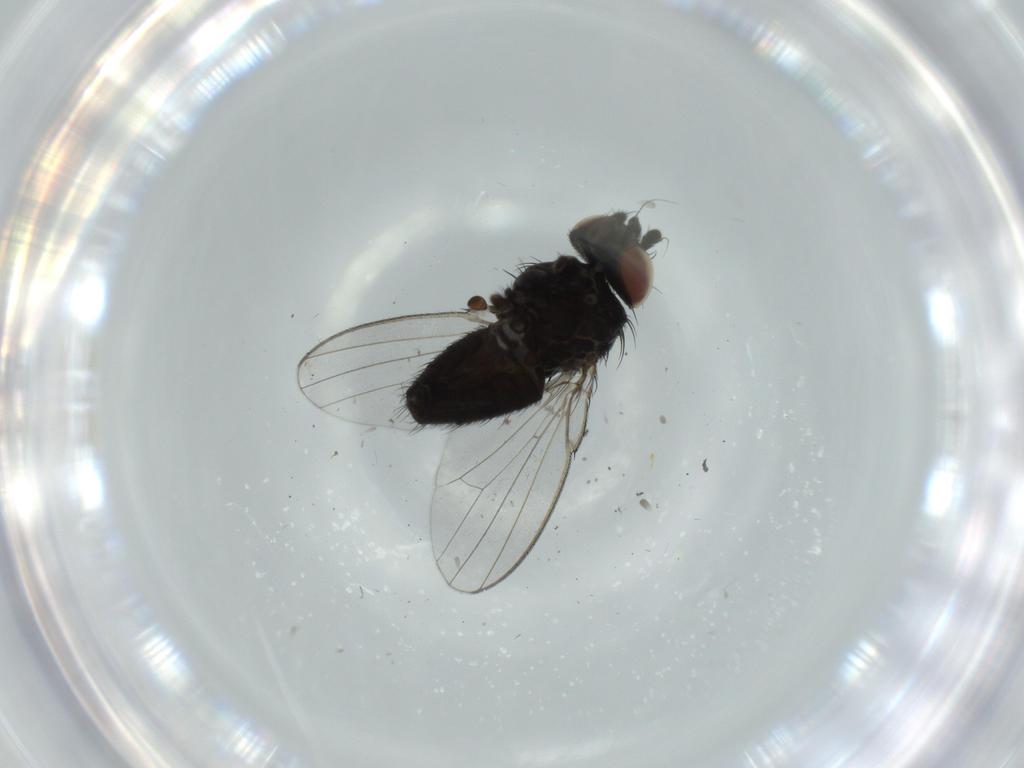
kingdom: Animalia
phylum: Arthropoda
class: Insecta
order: Diptera
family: Milichiidae
